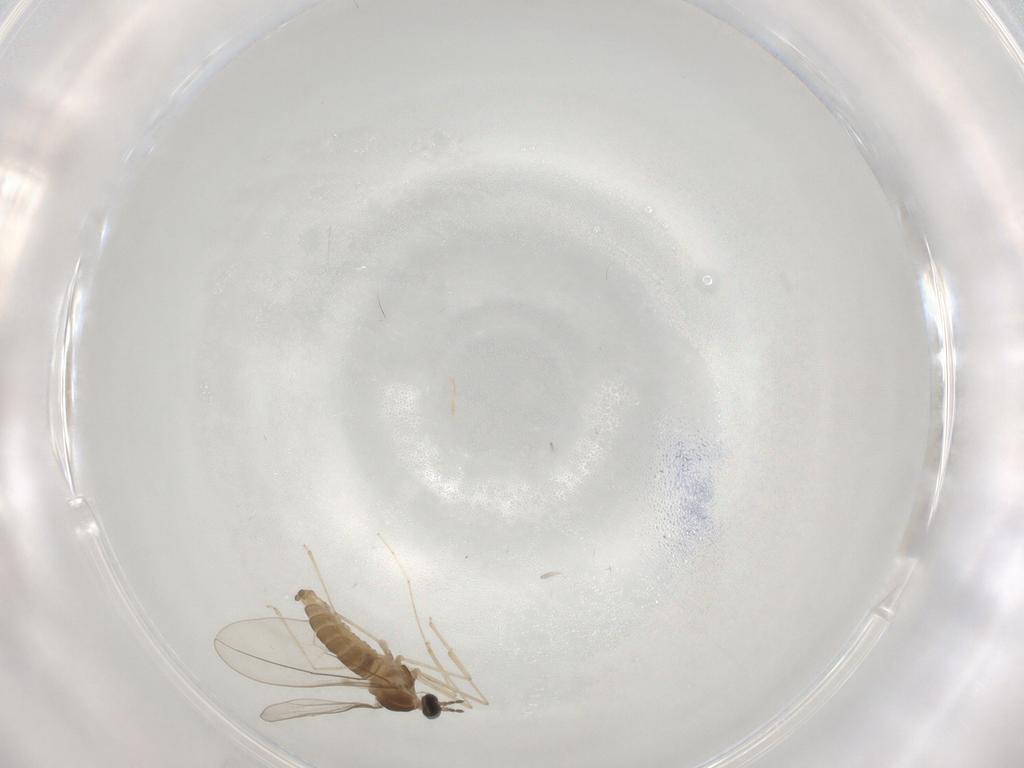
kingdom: Animalia
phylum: Arthropoda
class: Insecta
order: Diptera
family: Cecidomyiidae
